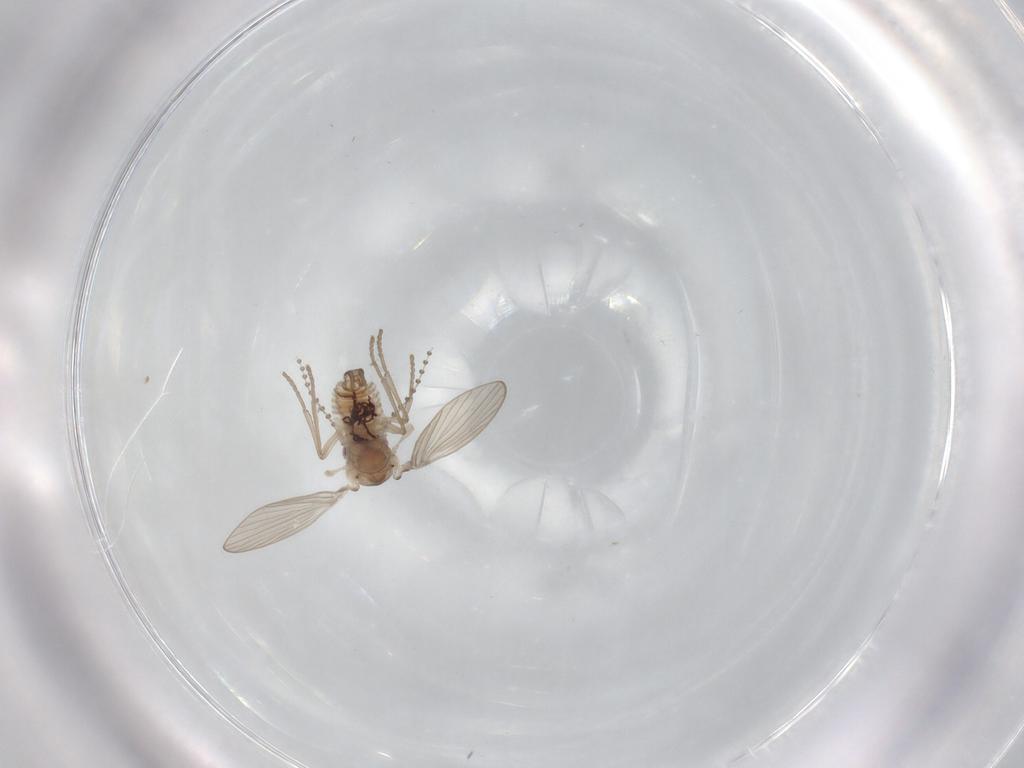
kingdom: Animalia
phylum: Arthropoda
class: Insecta
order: Diptera
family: Psychodidae
